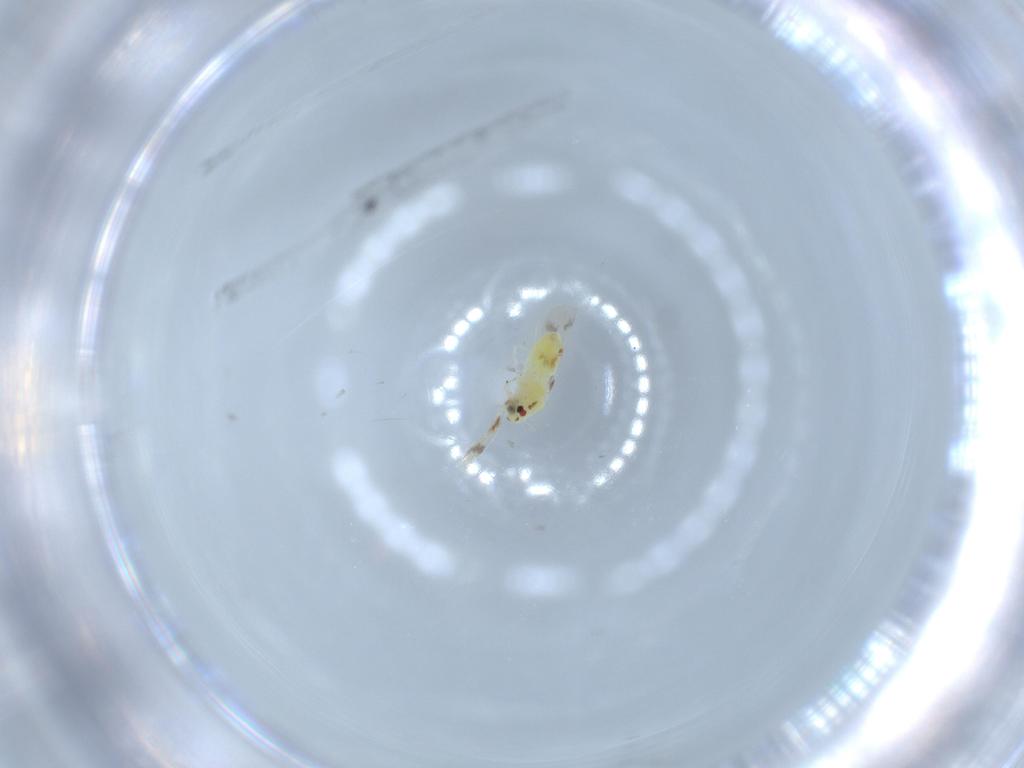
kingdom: Animalia
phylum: Arthropoda
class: Insecta
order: Hemiptera
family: Aleyrodidae
